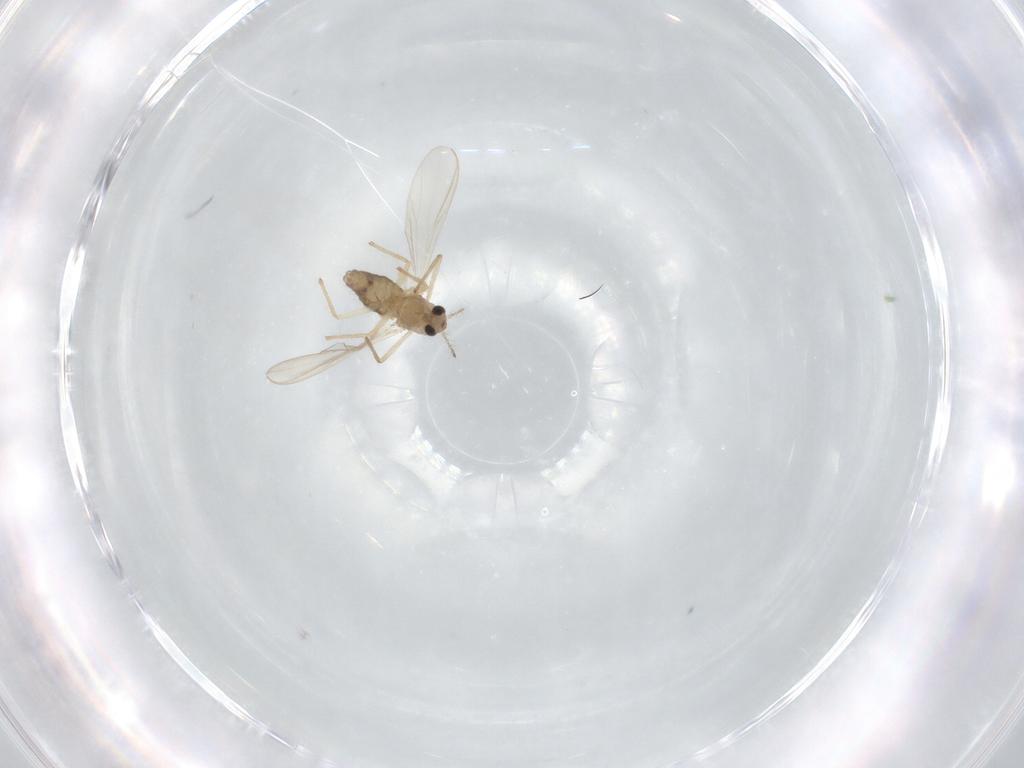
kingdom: Animalia
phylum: Arthropoda
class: Insecta
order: Diptera
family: Chironomidae
